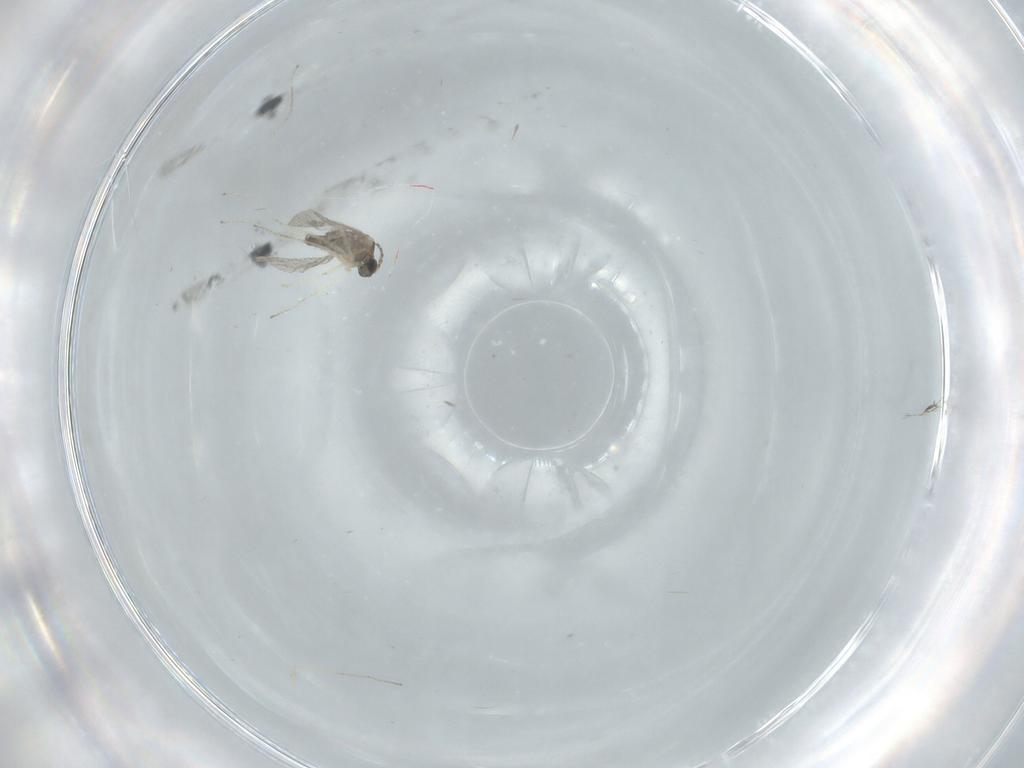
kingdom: Animalia
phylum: Arthropoda
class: Insecta
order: Diptera
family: Cecidomyiidae
